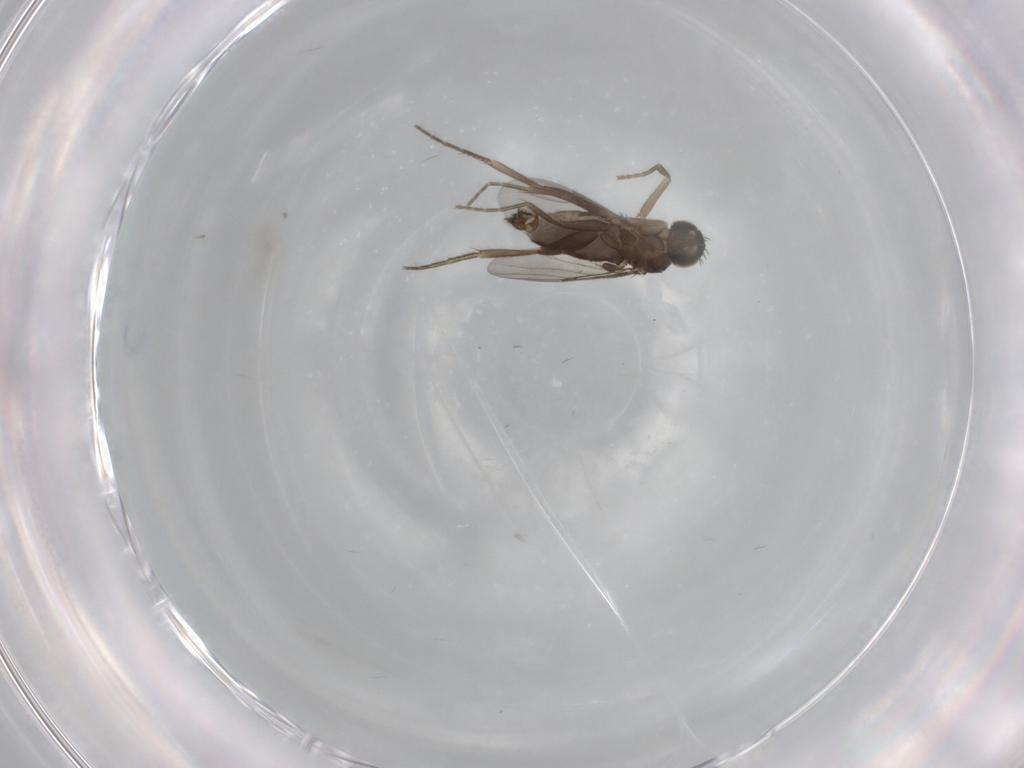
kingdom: Animalia
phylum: Arthropoda
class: Insecta
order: Diptera
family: Phoridae
